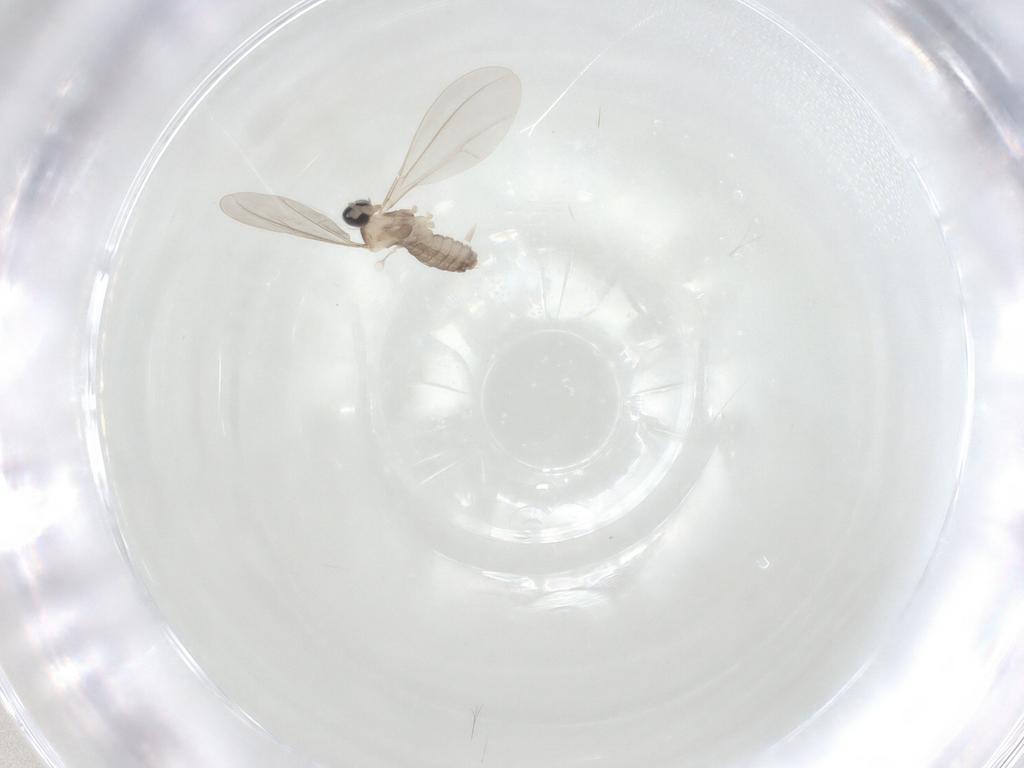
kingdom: Animalia
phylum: Arthropoda
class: Insecta
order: Diptera
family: Cecidomyiidae
